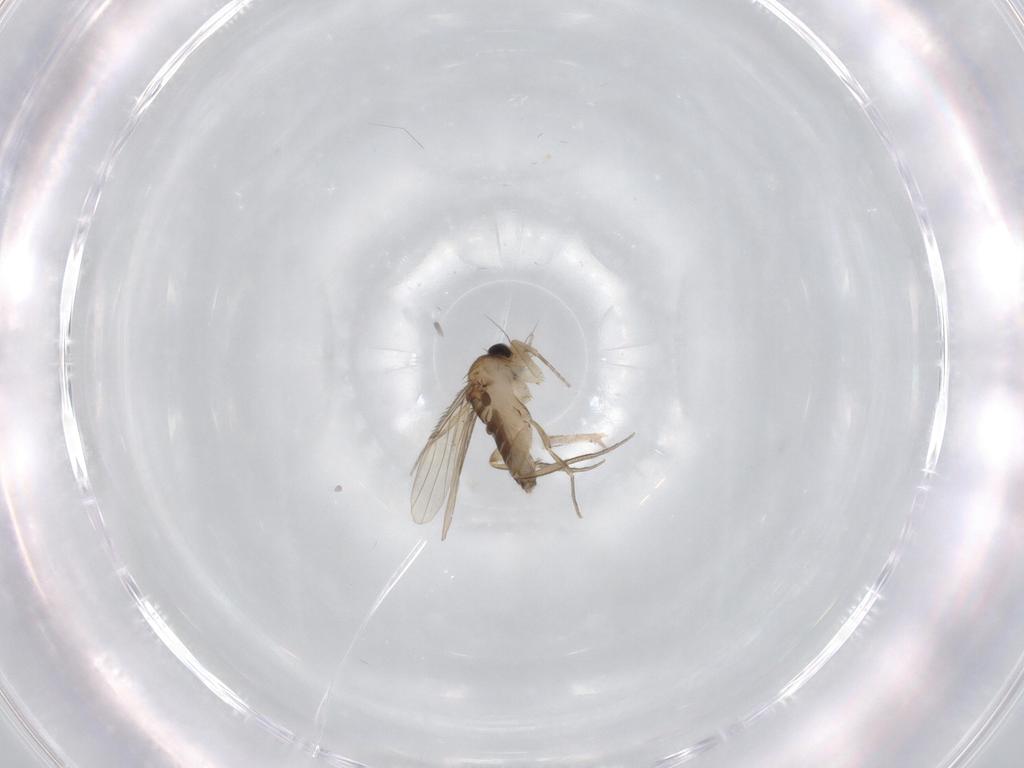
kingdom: Animalia
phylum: Arthropoda
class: Insecta
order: Diptera
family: Phoridae
